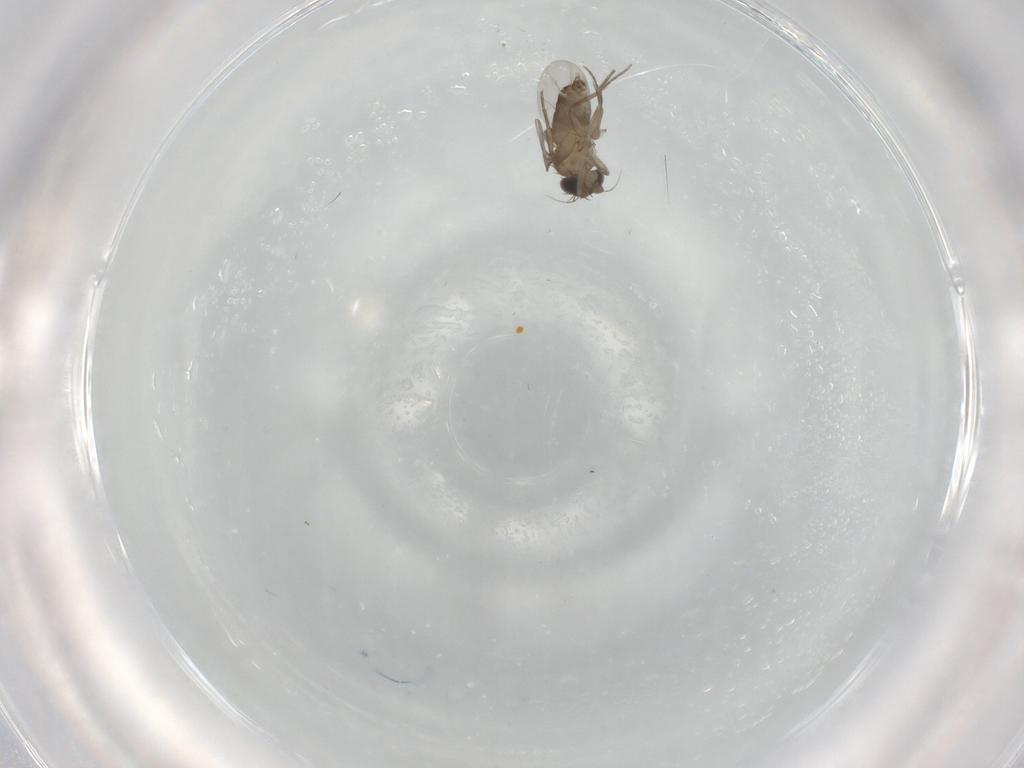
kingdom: Animalia
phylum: Arthropoda
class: Insecta
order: Diptera
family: Phoridae
